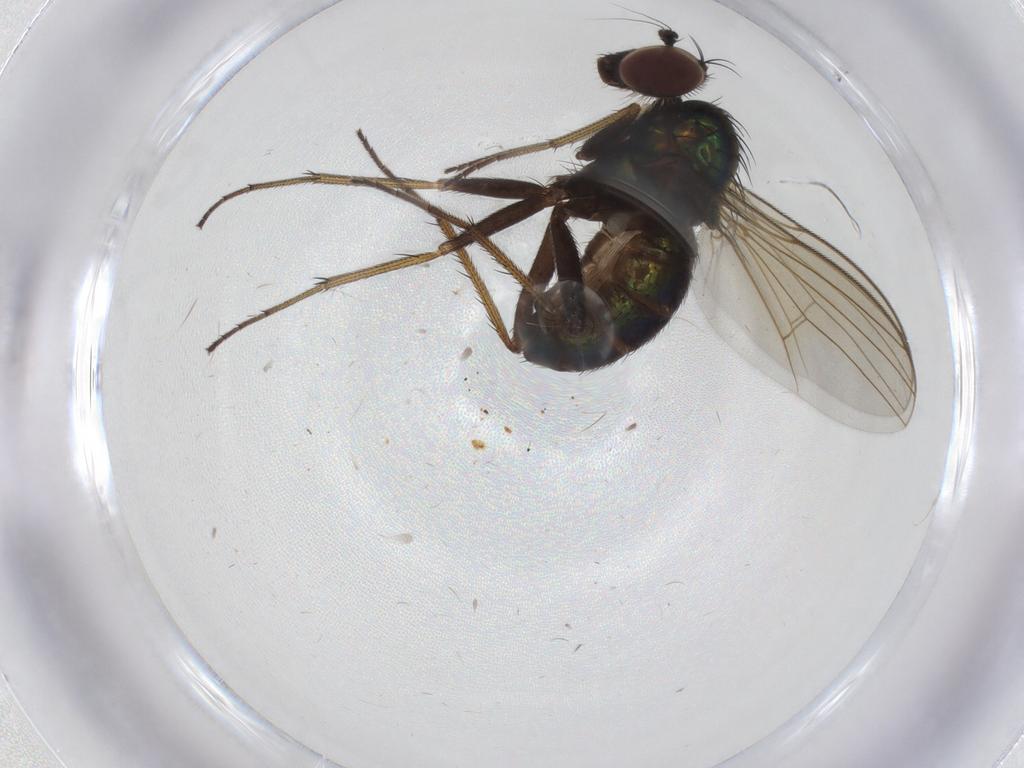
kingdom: Animalia
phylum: Arthropoda
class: Insecta
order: Diptera
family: Dolichopodidae
